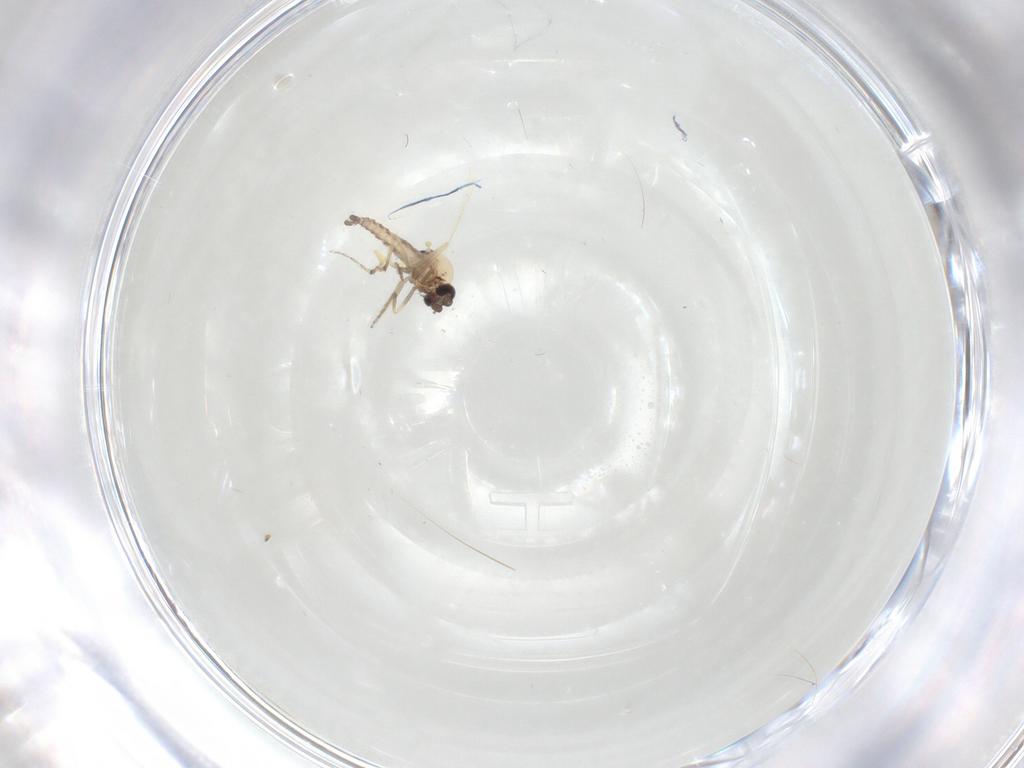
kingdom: Animalia
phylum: Arthropoda
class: Insecta
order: Diptera
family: Ceratopogonidae
